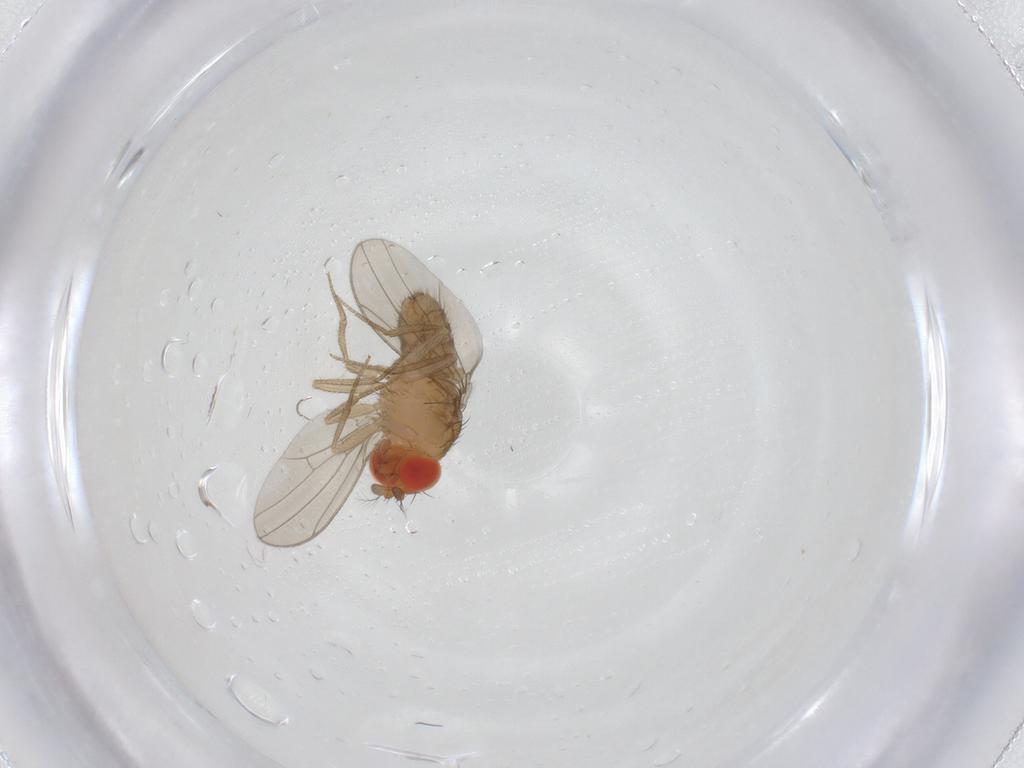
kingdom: Animalia
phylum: Arthropoda
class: Insecta
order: Diptera
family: Drosophilidae
